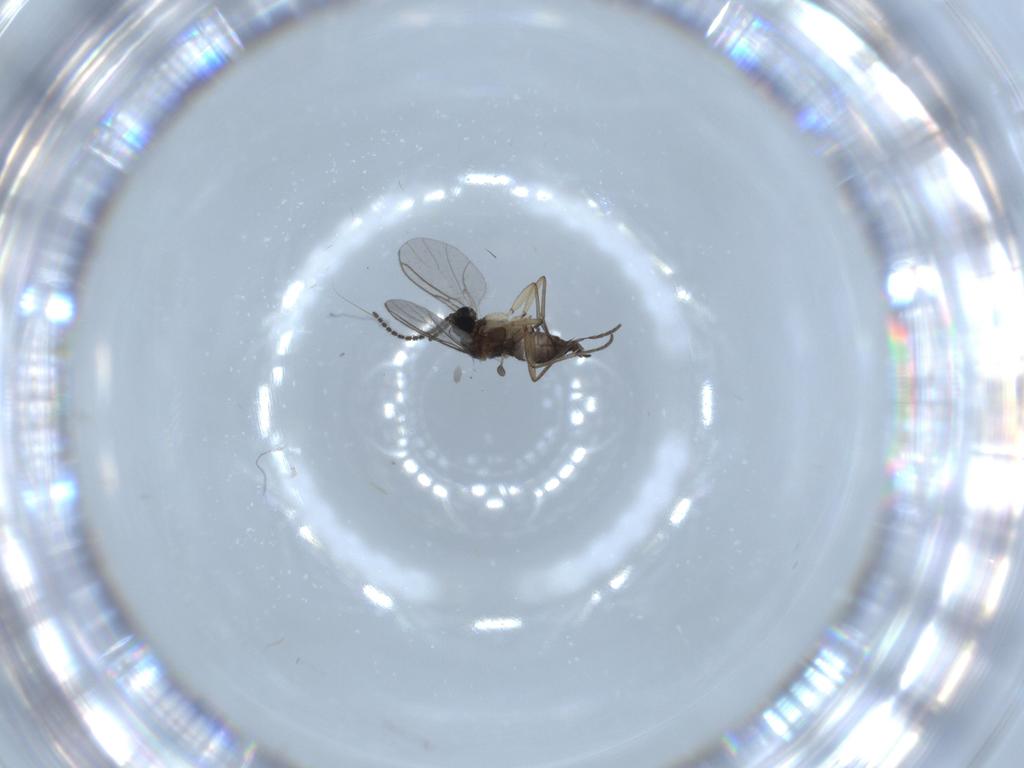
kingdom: Animalia
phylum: Arthropoda
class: Insecta
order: Diptera
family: Sciaridae
